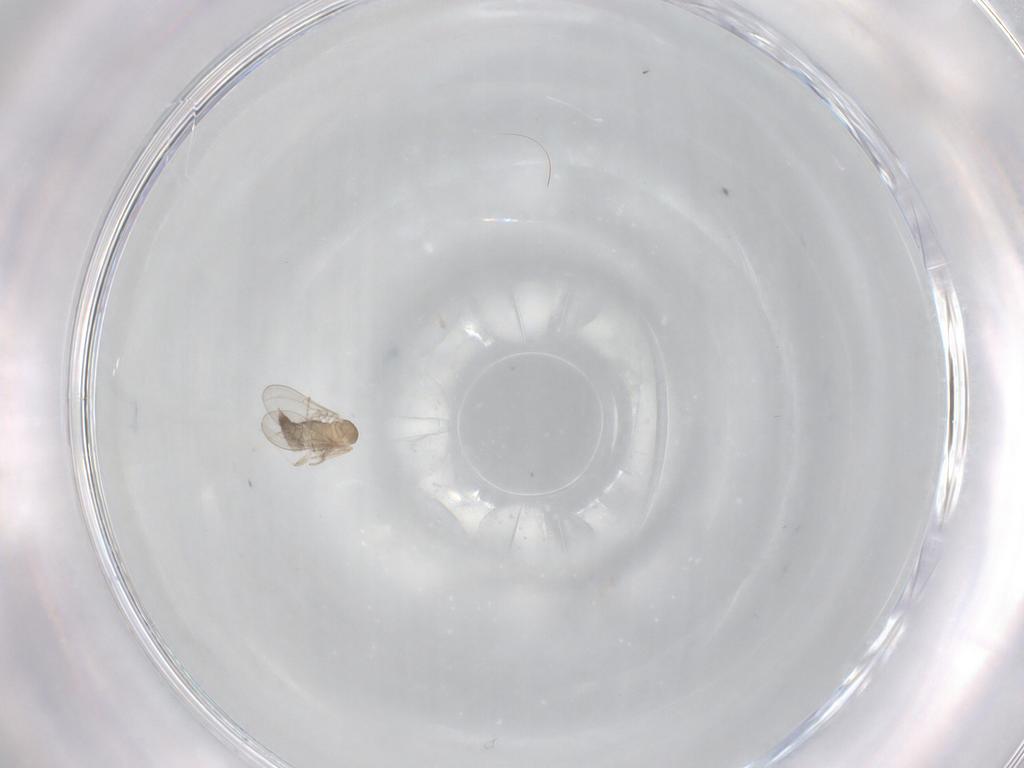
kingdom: Animalia
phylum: Arthropoda
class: Insecta
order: Diptera
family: Cecidomyiidae
